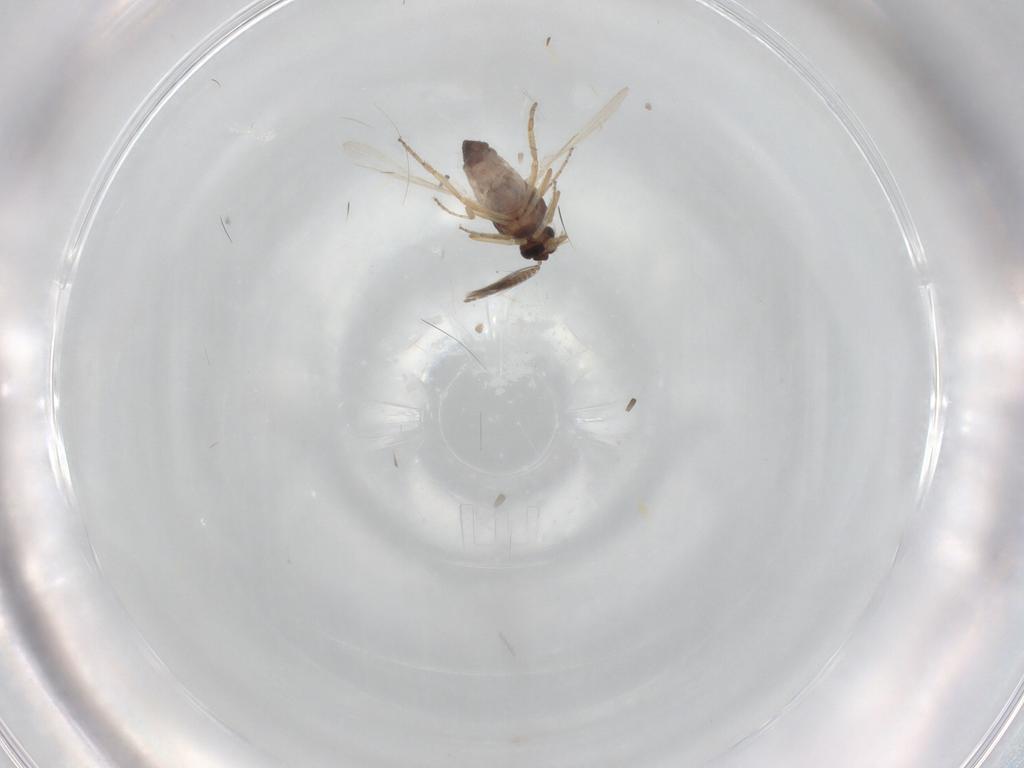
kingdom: Animalia
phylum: Arthropoda
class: Insecta
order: Diptera
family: Ceratopogonidae
